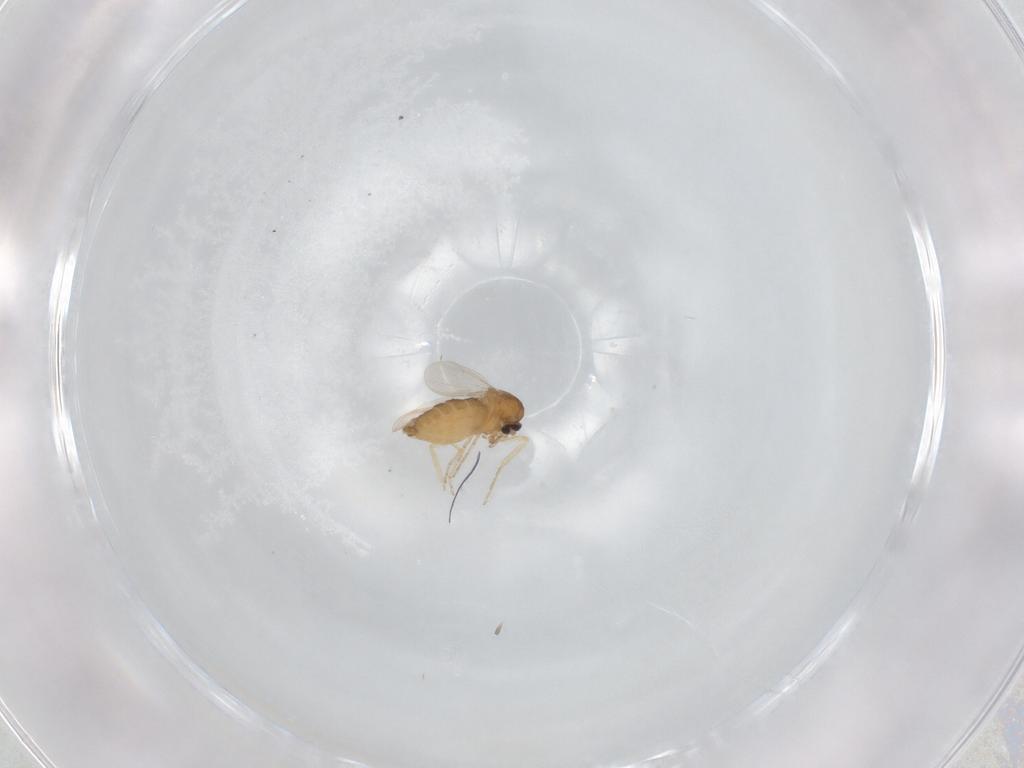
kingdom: Animalia
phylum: Arthropoda
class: Insecta
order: Diptera
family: Ceratopogonidae
